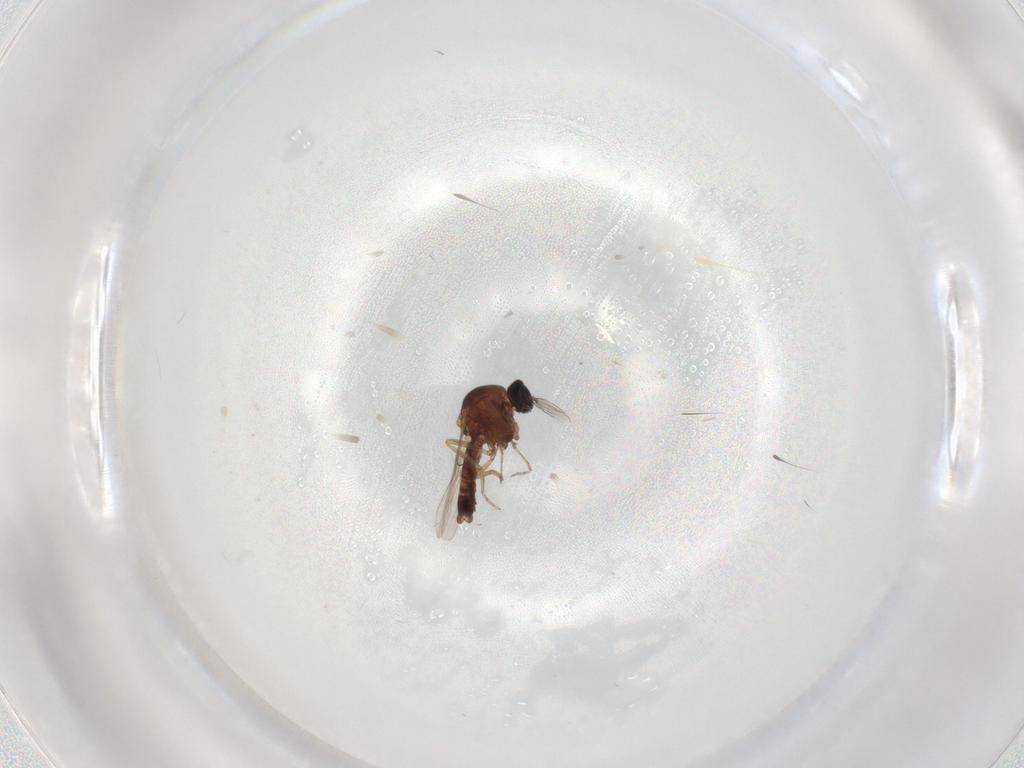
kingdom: Animalia
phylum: Arthropoda
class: Insecta
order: Diptera
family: Ceratopogonidae
